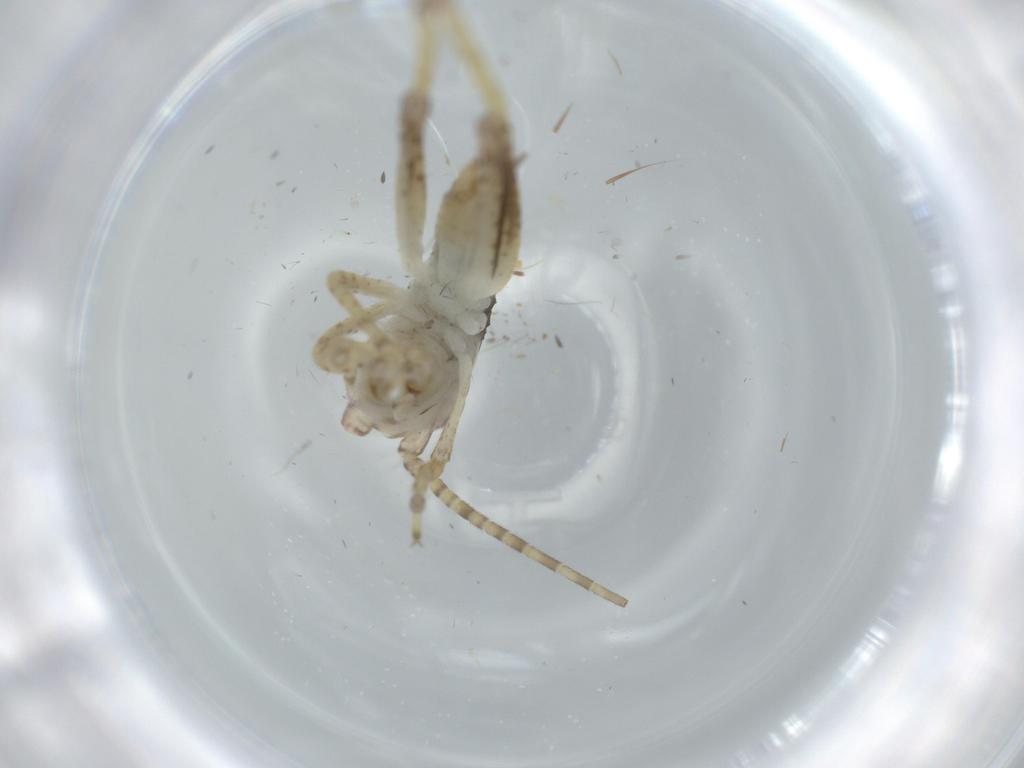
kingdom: Animalia
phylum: Arthropoda
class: Insecta
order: Orthoptera
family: Gryllidae
